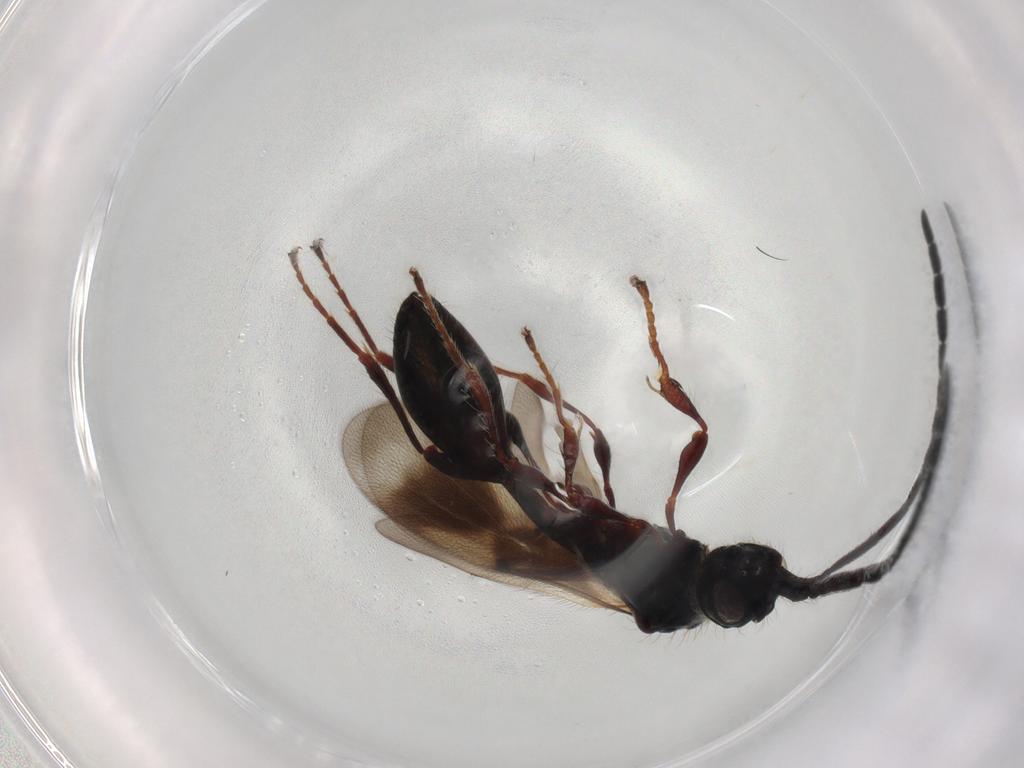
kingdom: Animalia
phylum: Arthropoda
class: Insecta
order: Hymenoptera
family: Diapriidae
